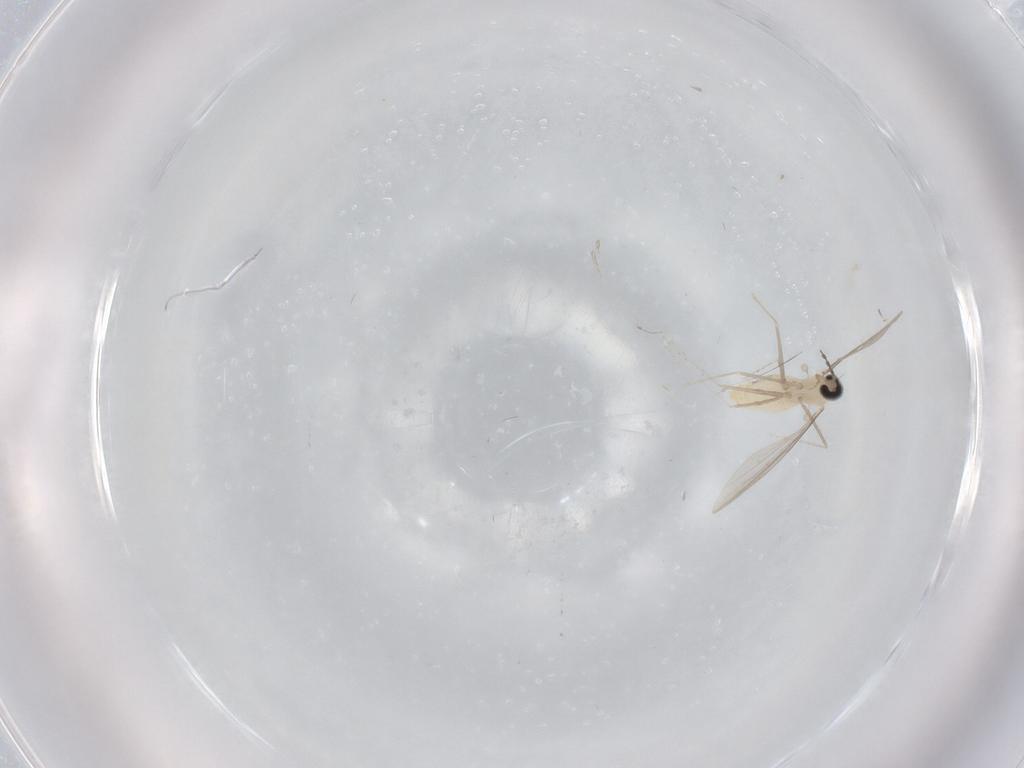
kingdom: Animalia
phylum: Arthropoda
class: Insecta
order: Diptera
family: Cecidomyiidae
